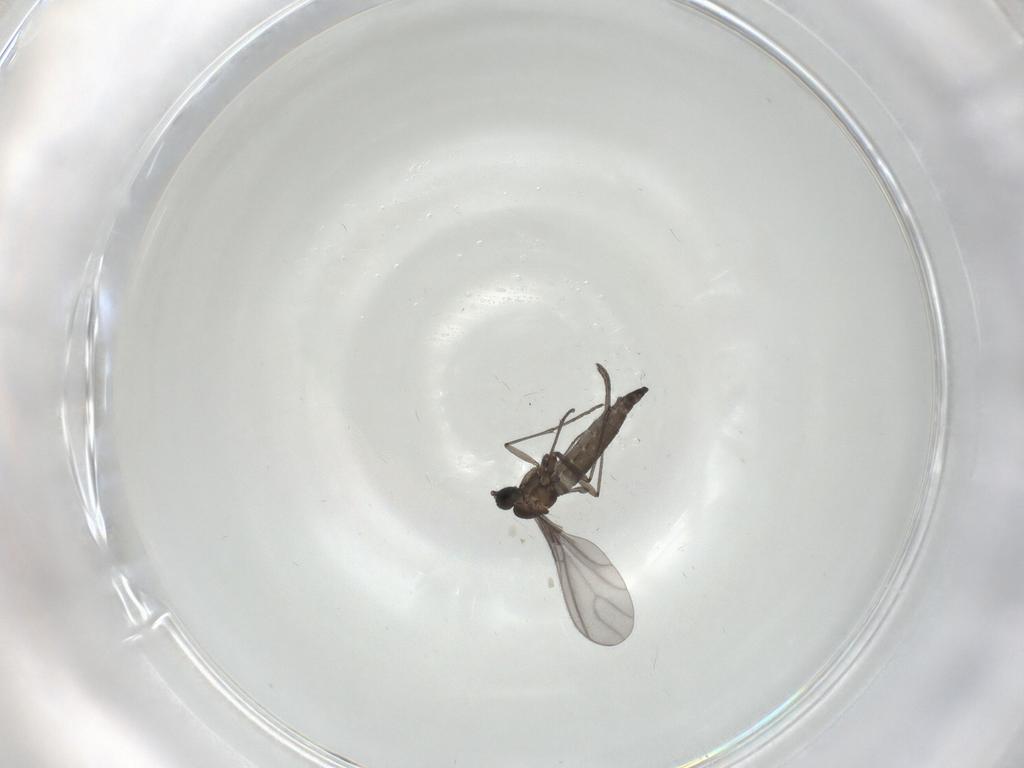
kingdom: Animalia
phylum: Arthropoda
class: Insecta
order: Diptera
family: Sciaridae
